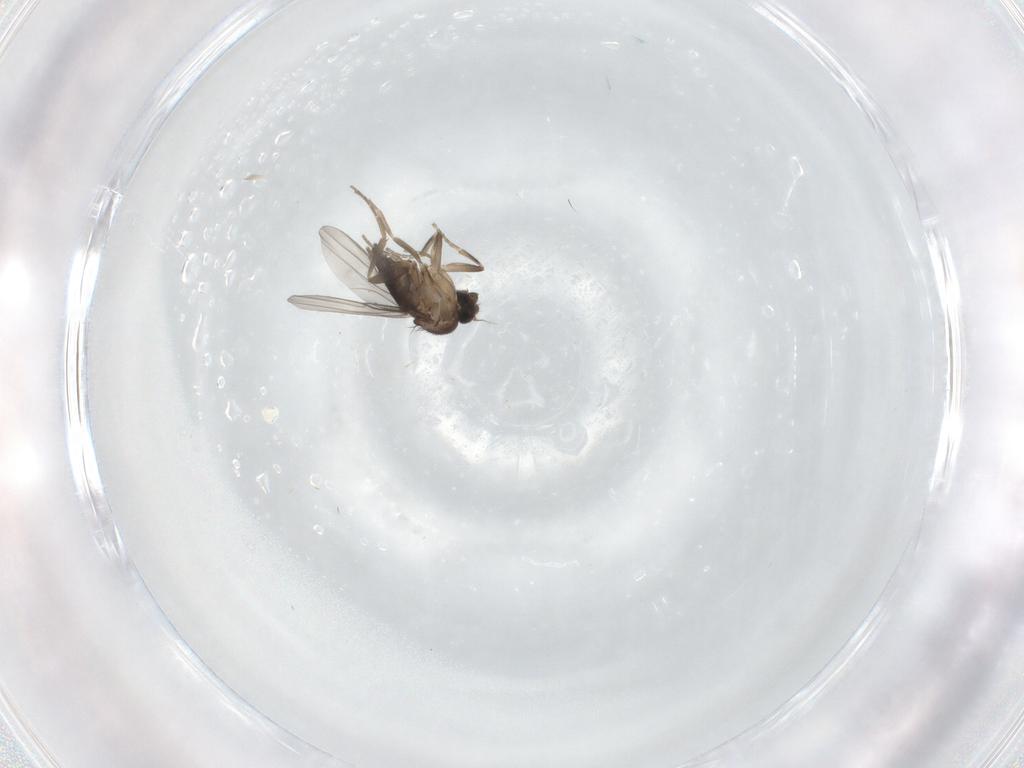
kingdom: Animalia
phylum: Arthropoda
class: Insecta
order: Diptera
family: Phoridae
